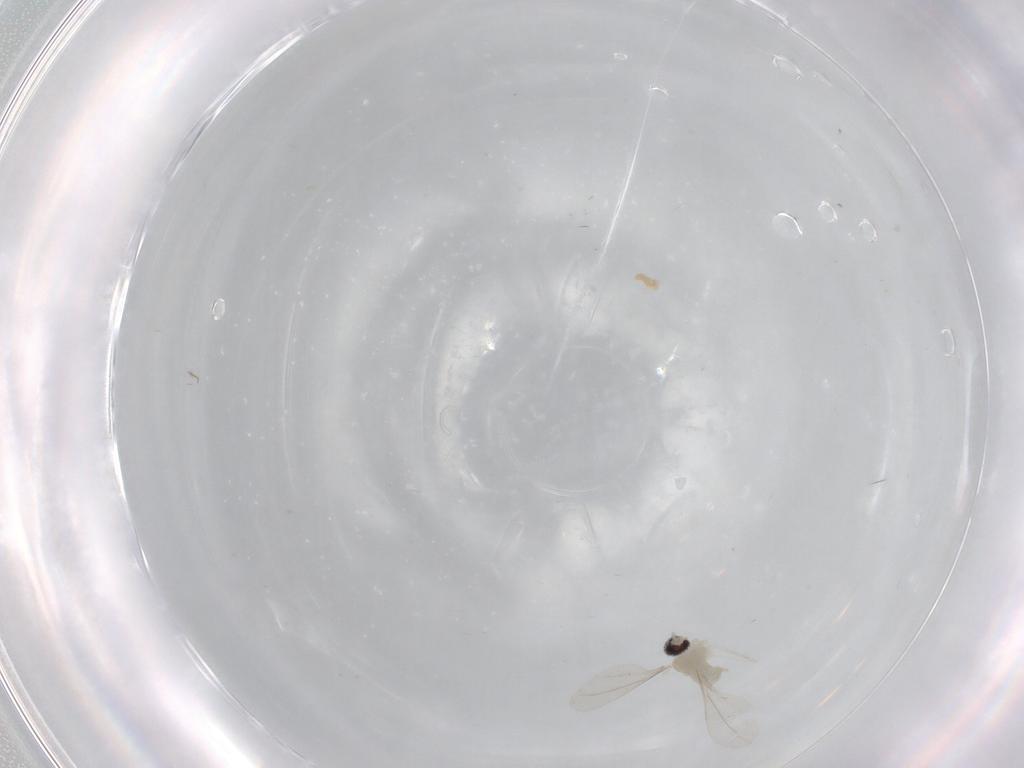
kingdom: Animalia
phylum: Arthropoda
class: Insecta
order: Diptera
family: Cecidomyiidae
